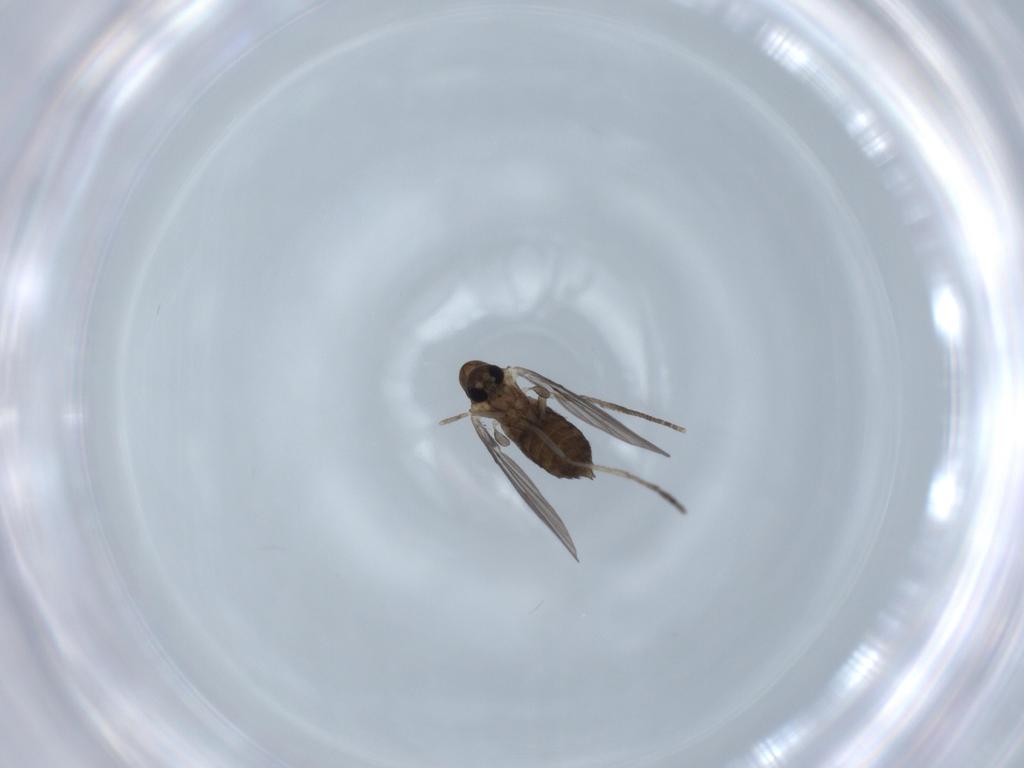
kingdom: Animalia
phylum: Arthropoda
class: Insecta
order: Diptera
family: Psychodidae
